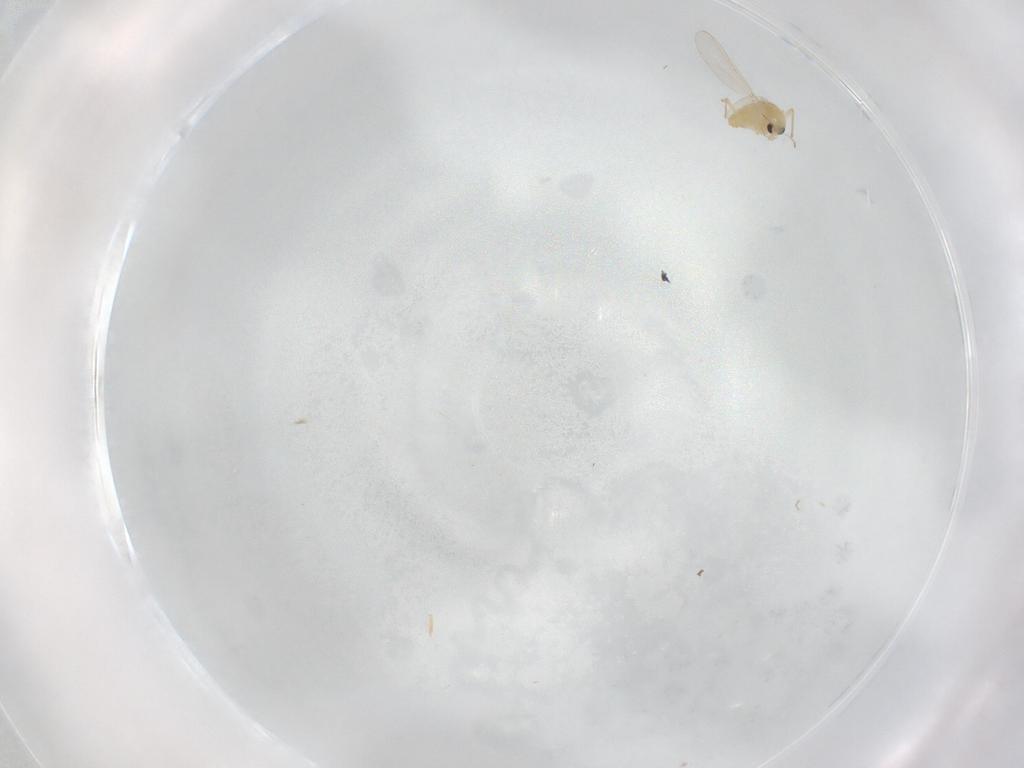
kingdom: Animalia
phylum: Arthropoda
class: Insecta
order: Diptera
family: Chironomidae
